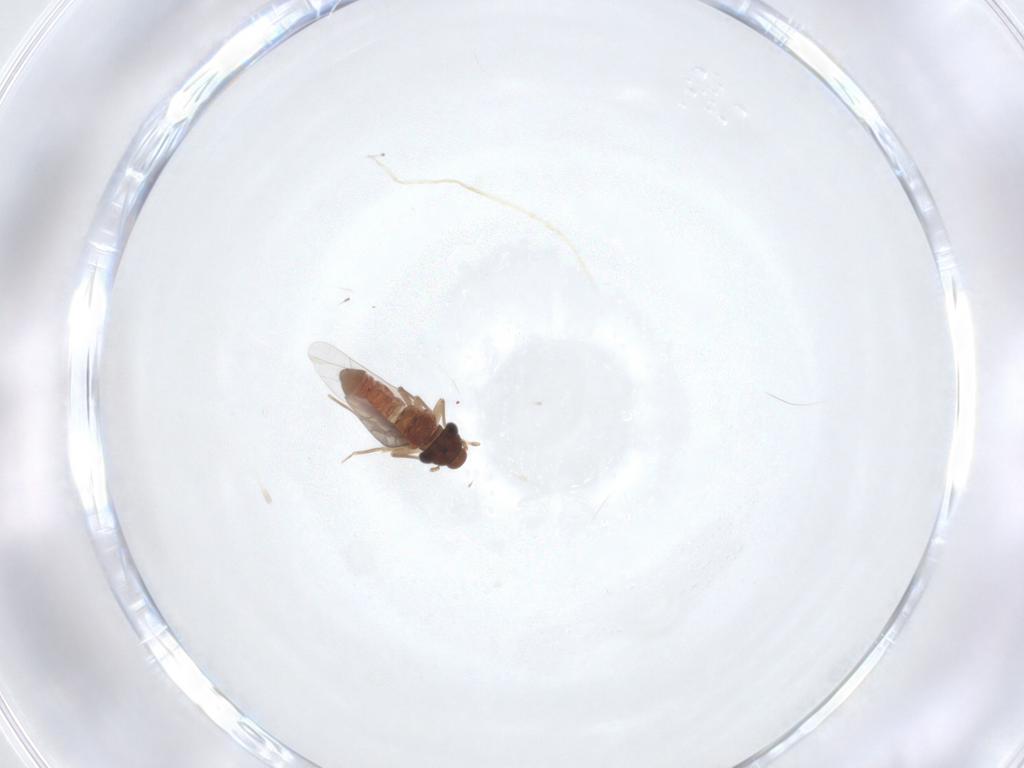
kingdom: Animalia
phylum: Arthropoda
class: Insecta
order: Psocodea
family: Lepidopsocidae
